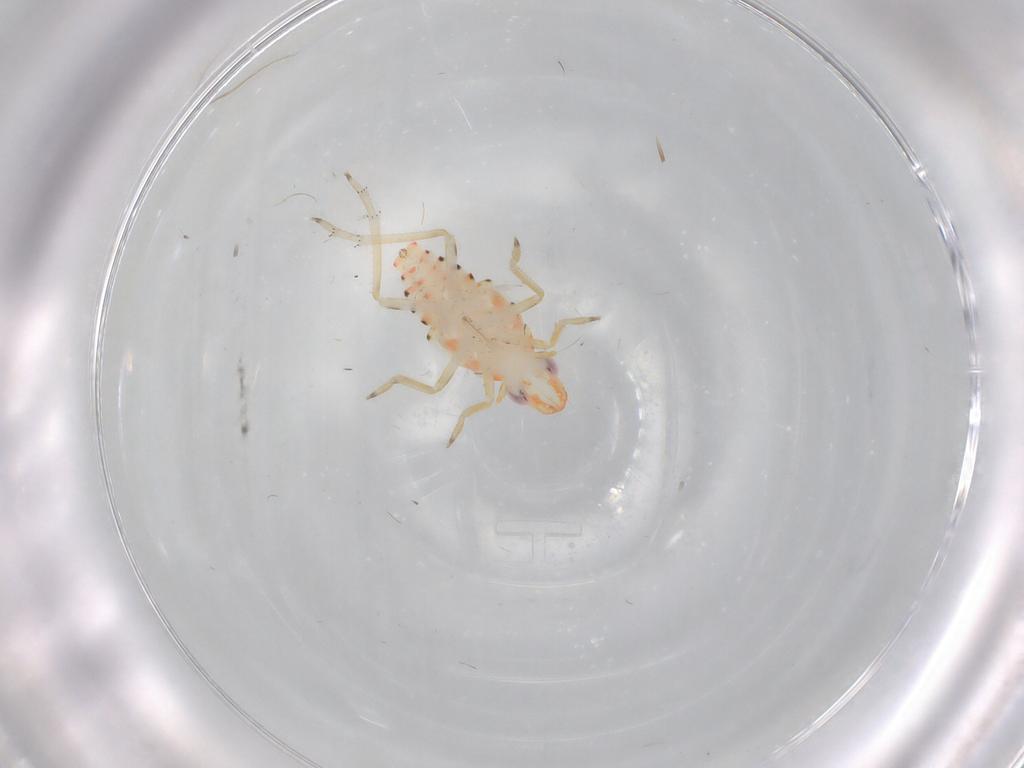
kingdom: Animalia
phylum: Arthropoda
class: Insecta
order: Hemiptera
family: Tropiduchidae
